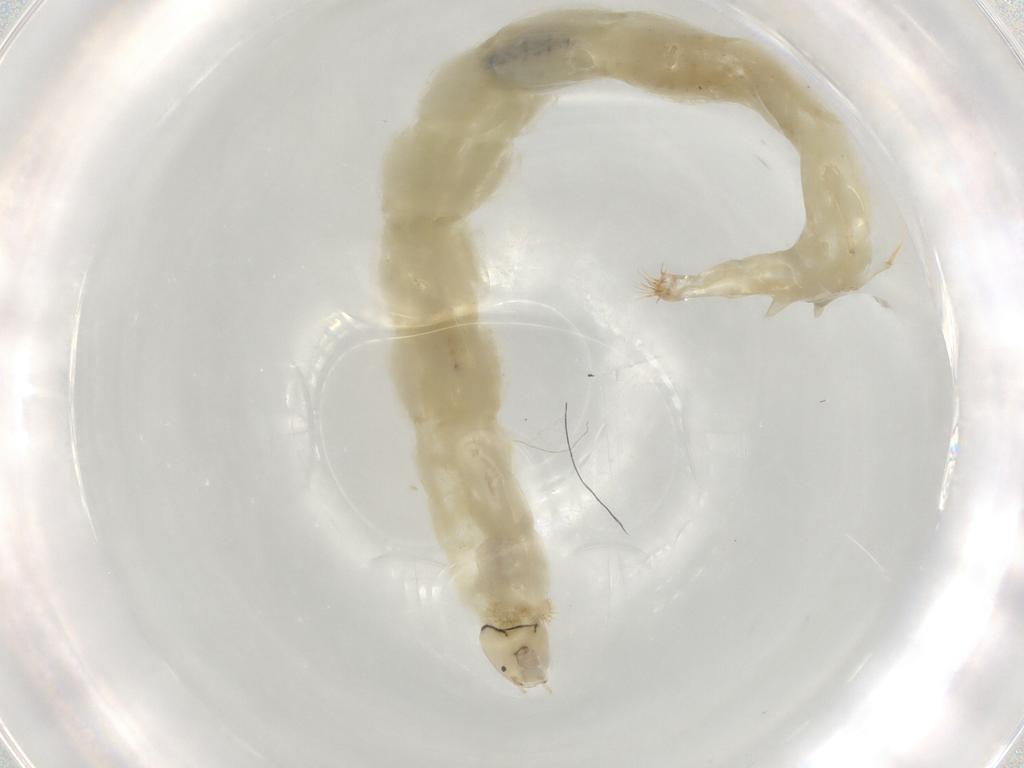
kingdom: Animalia
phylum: Arthropoda
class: Insecta
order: Diptera
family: Chironomidae
